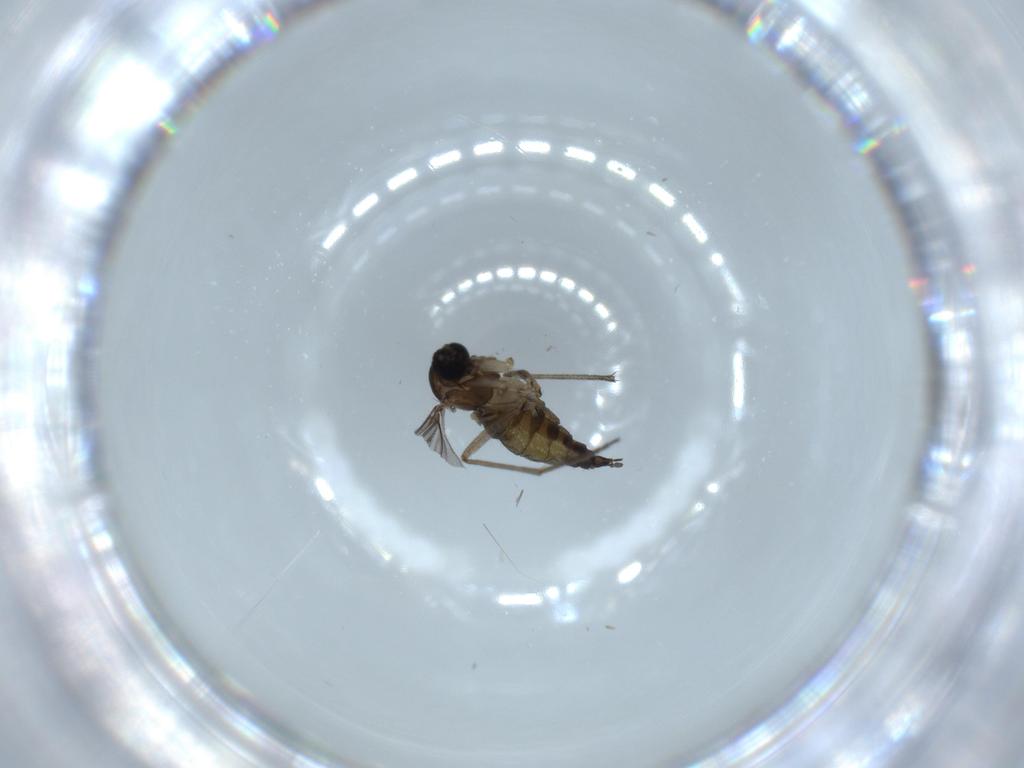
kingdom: Animalia
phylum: Arthropoda
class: Insecta
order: Diptera
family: Sciaridae
